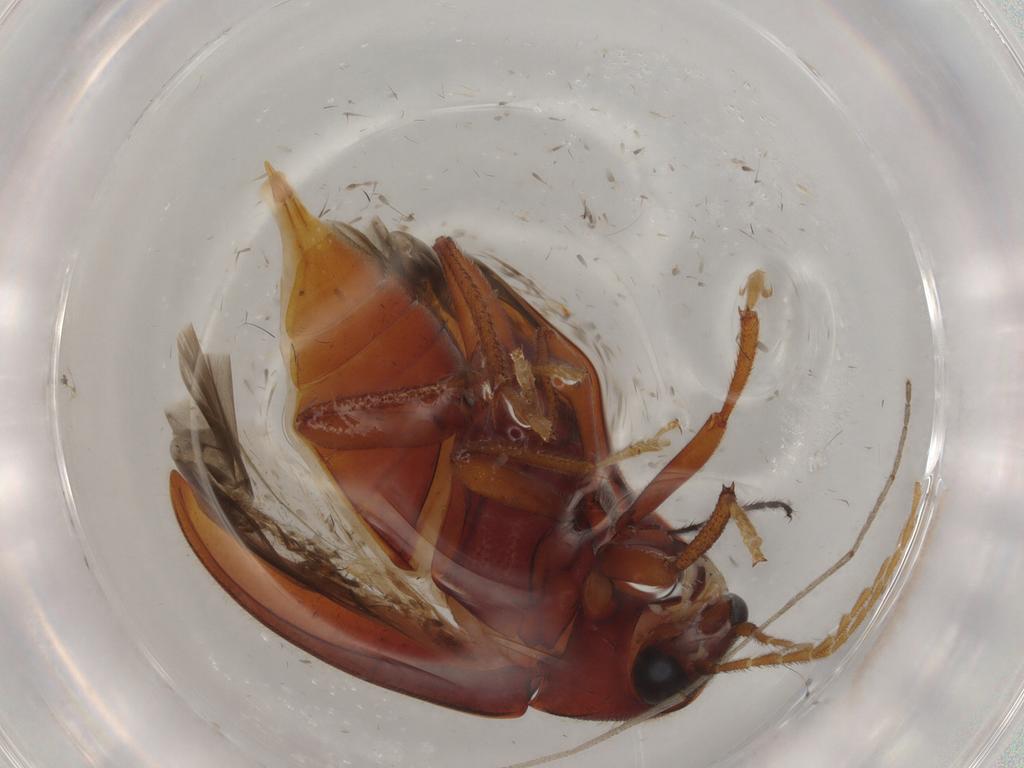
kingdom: Animalia
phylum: Arthropoda
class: Insecta
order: Coleoptera
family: Ptilodactylidae
